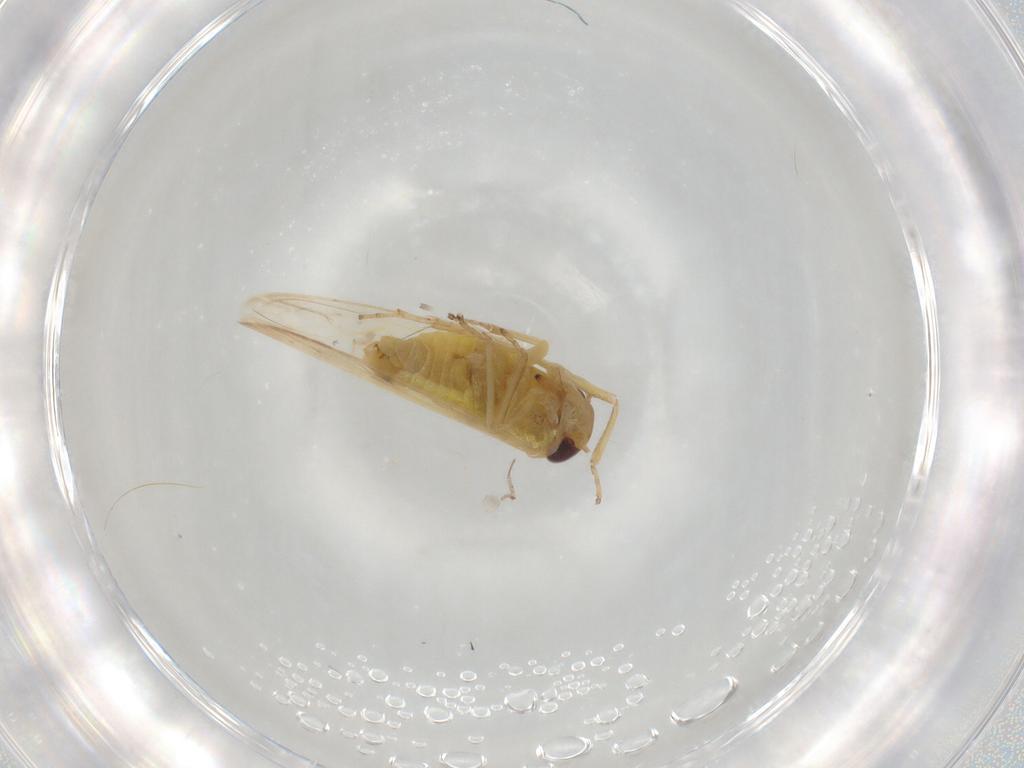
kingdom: Animalia
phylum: Arthropoda
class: Insecta
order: Hemiptera
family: Cicadellidae
